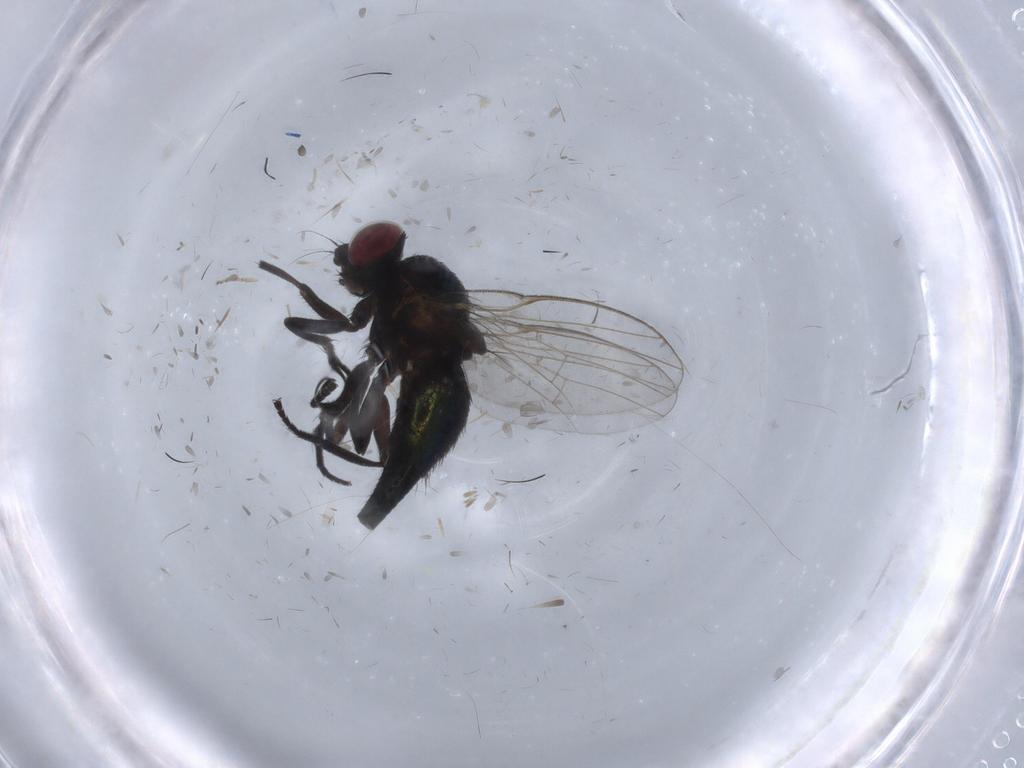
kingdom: Animalia
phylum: Arthropoda
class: Insecta
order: Diptera
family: Agromyzidae
